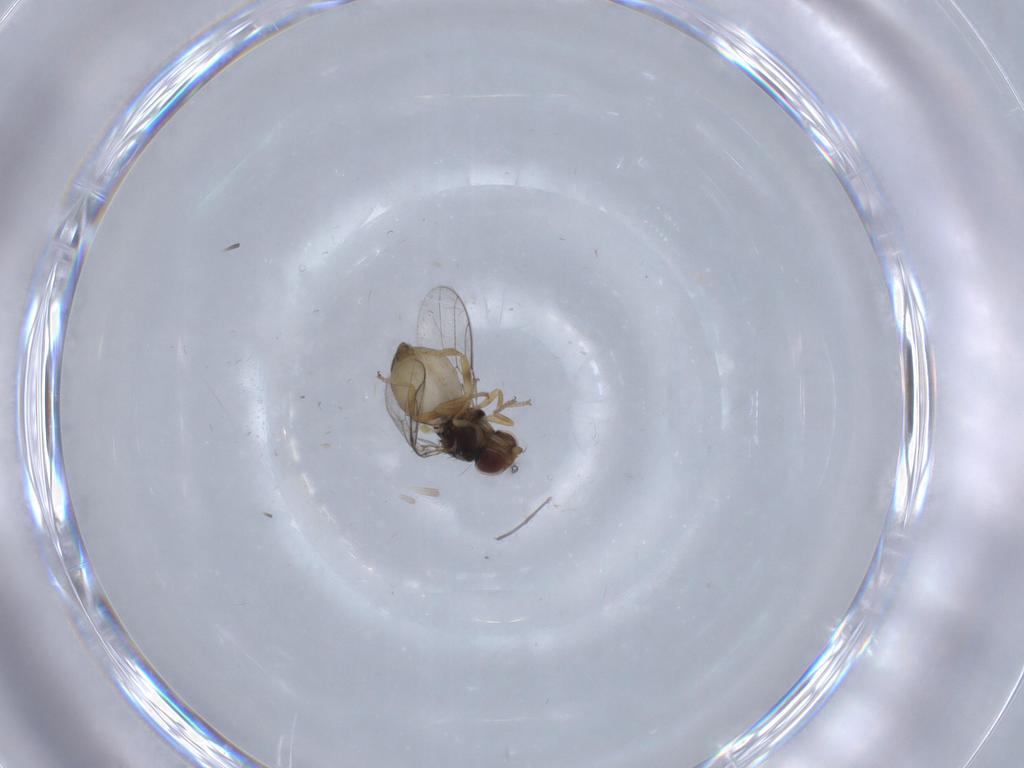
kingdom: Animalia
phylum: Arthropoda
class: Insecta
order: Diptera
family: Chloropidae
